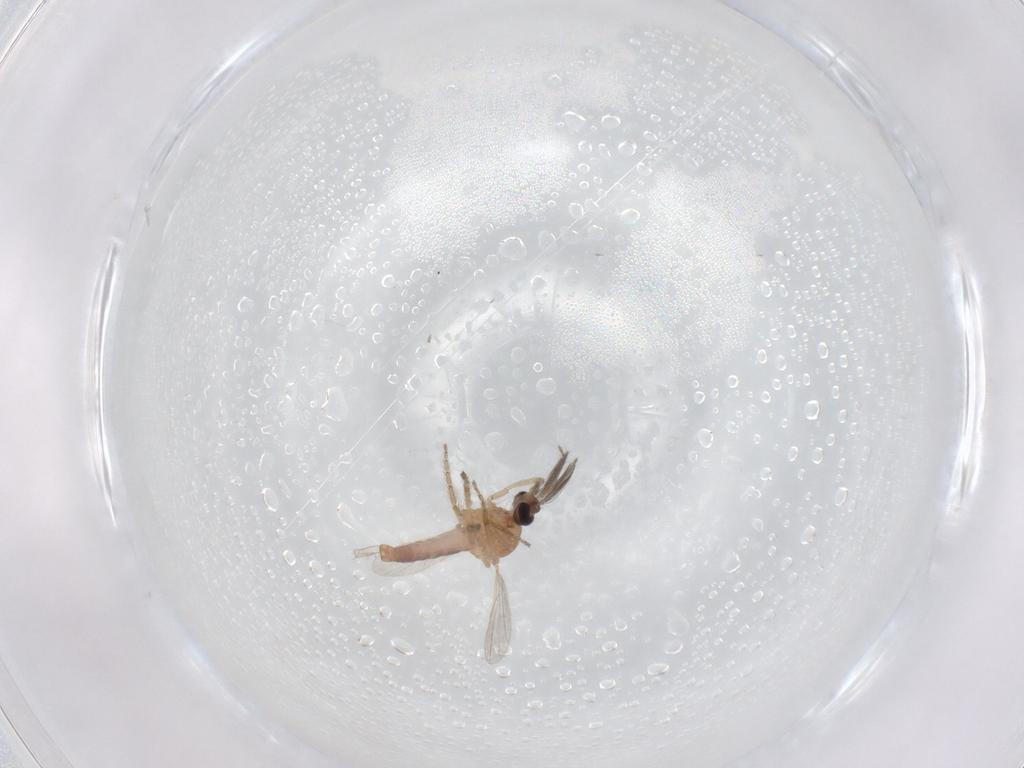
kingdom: Animalia
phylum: Arthropoda
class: Insecta
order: Diptera
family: Ceratopogonidae
